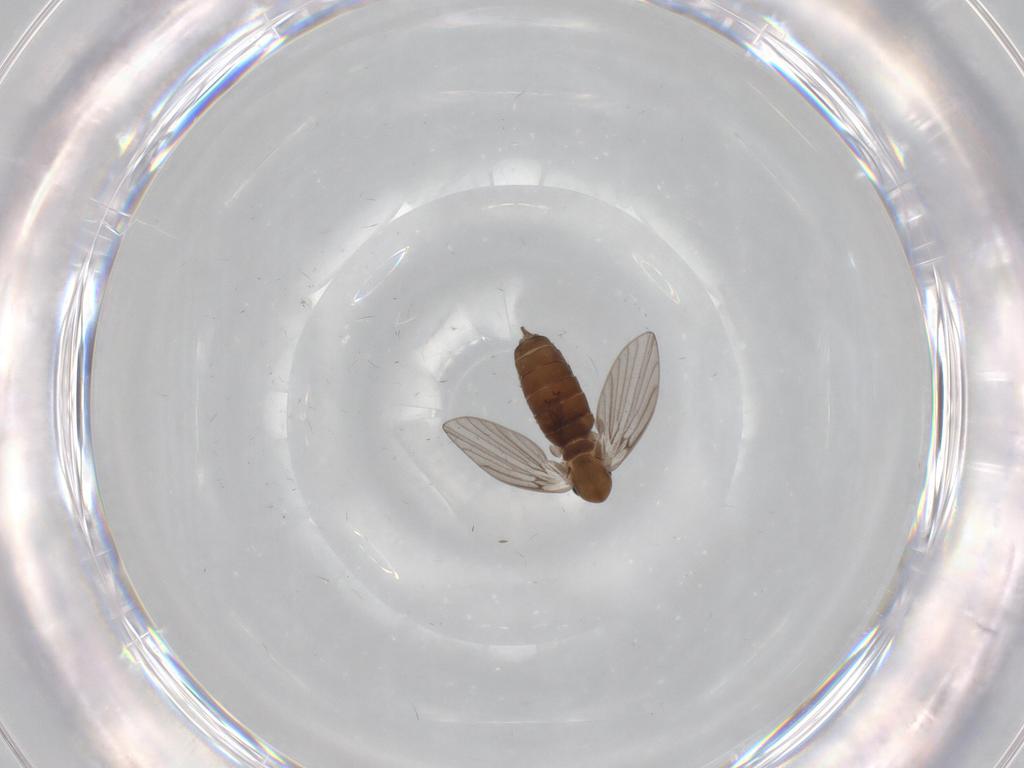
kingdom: Animalia
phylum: Arthropoda
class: Insecta
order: Diptera
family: Psychodidae
